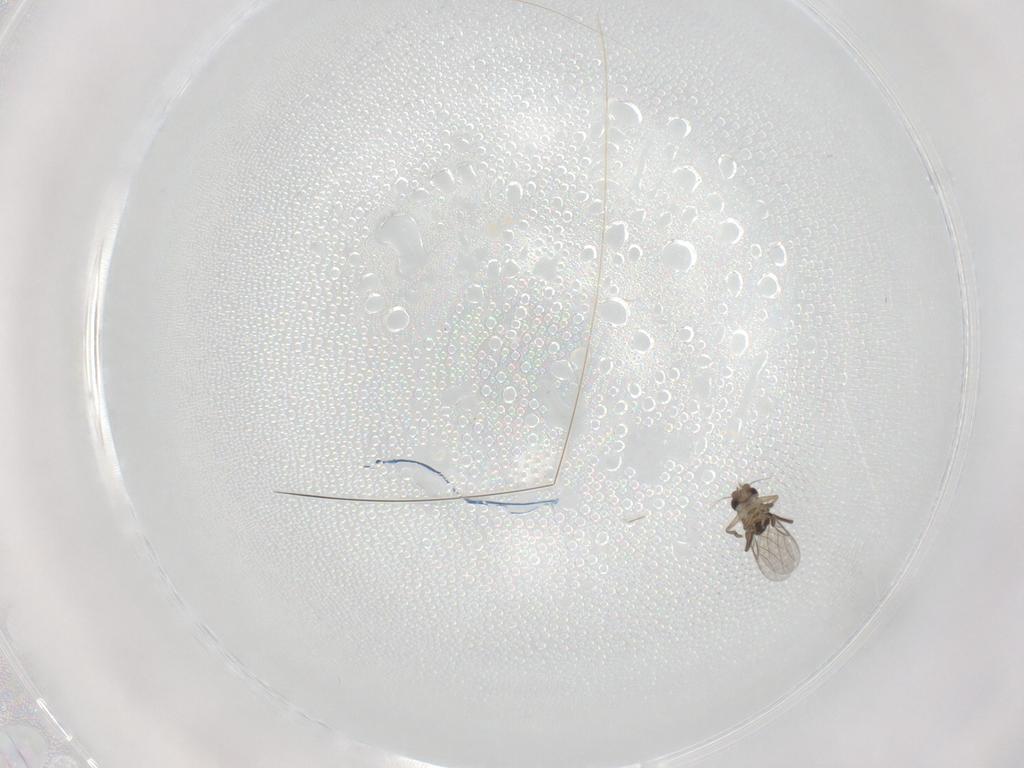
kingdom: Animalia
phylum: Arthropoda
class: Insecta
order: Diptera
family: Phoridae
